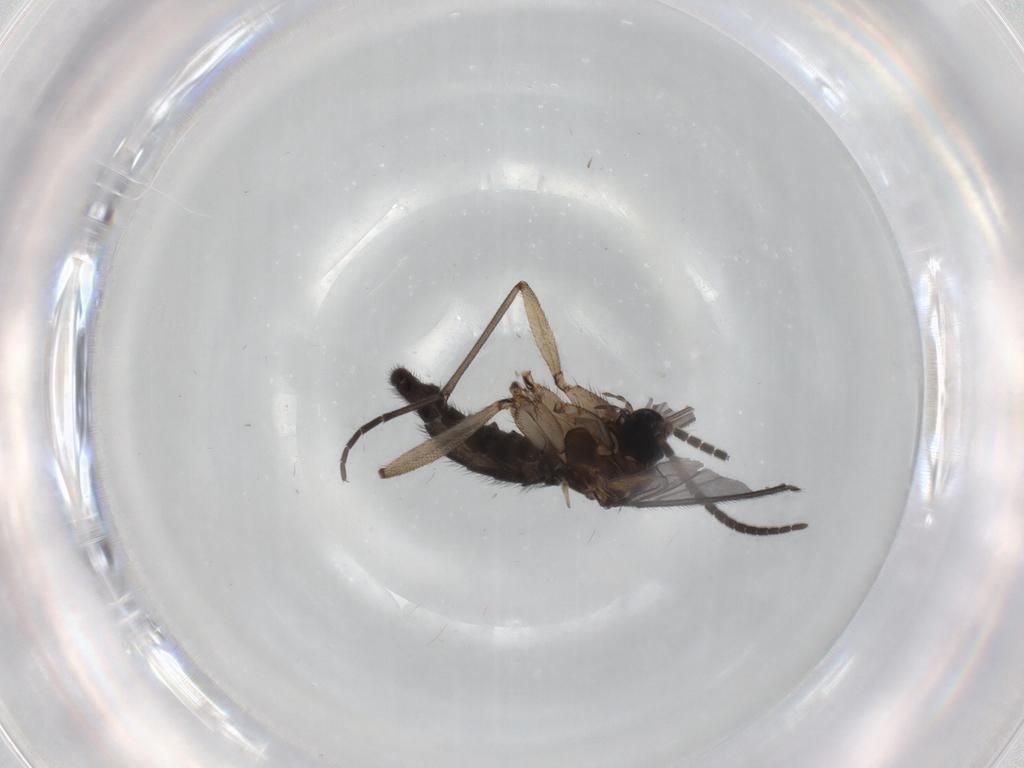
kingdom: Animalia
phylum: Arthropoda
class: Insecta
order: Diptera
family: Sciaridae
